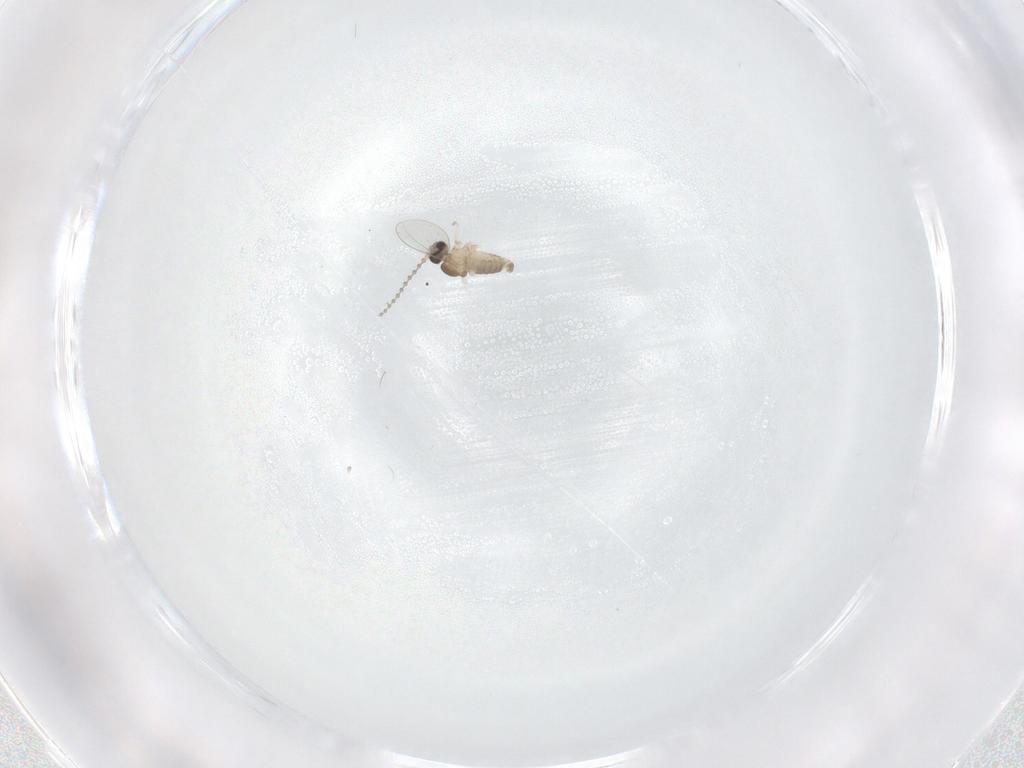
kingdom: Animalia
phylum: Arthropoda
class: Insecta
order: Diptera
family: Cecidomyiidae
